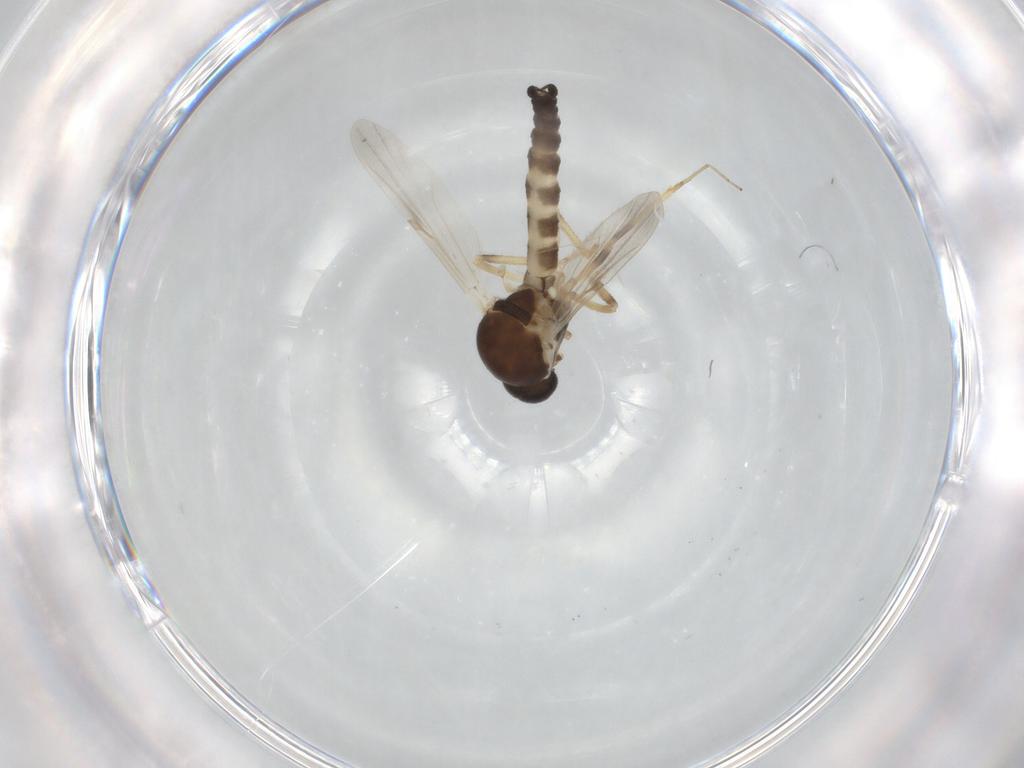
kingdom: Animalia
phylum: Arthropoda
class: Insecta
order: Diptera
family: Ceratopogonidae
